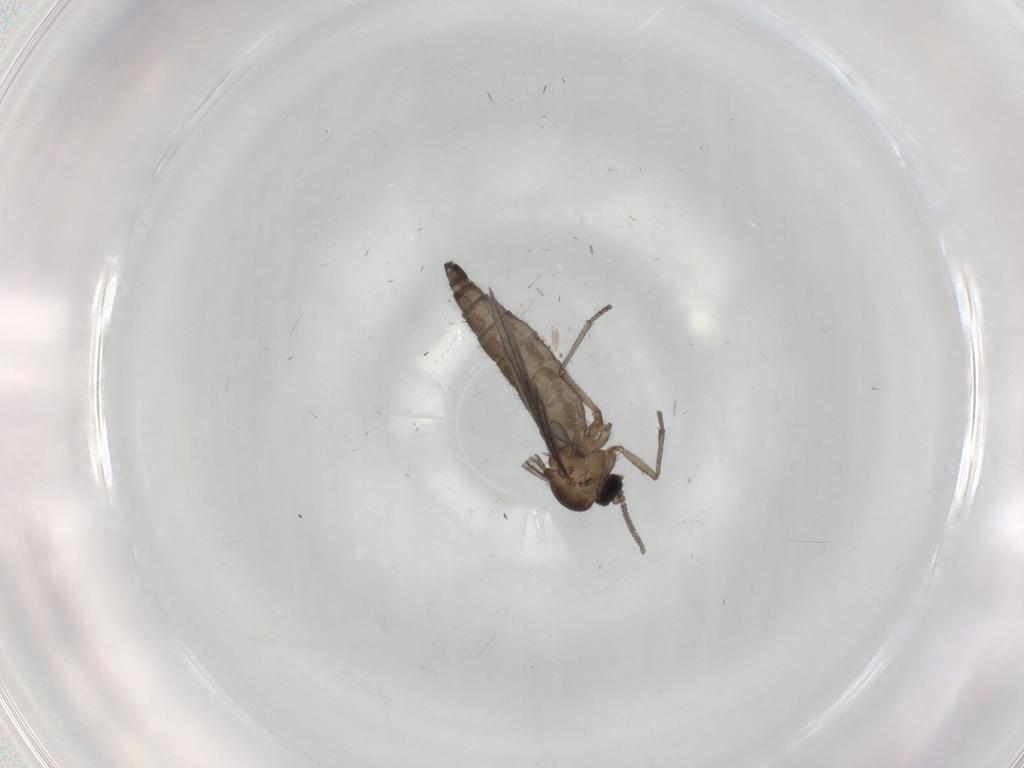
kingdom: Animalia
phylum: Arthropoda
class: Insecta
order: Diptera
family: Sciaridae
